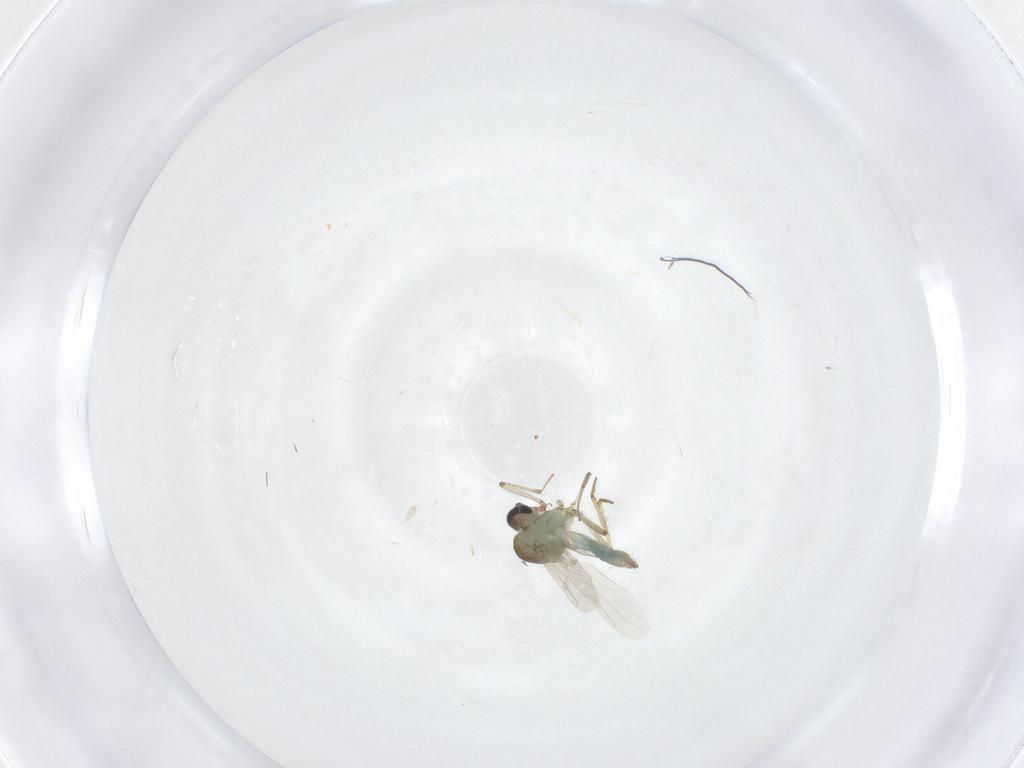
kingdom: Animalia
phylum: Arthropoda
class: Insecta
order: Diptera
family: Ceratopogonidae
